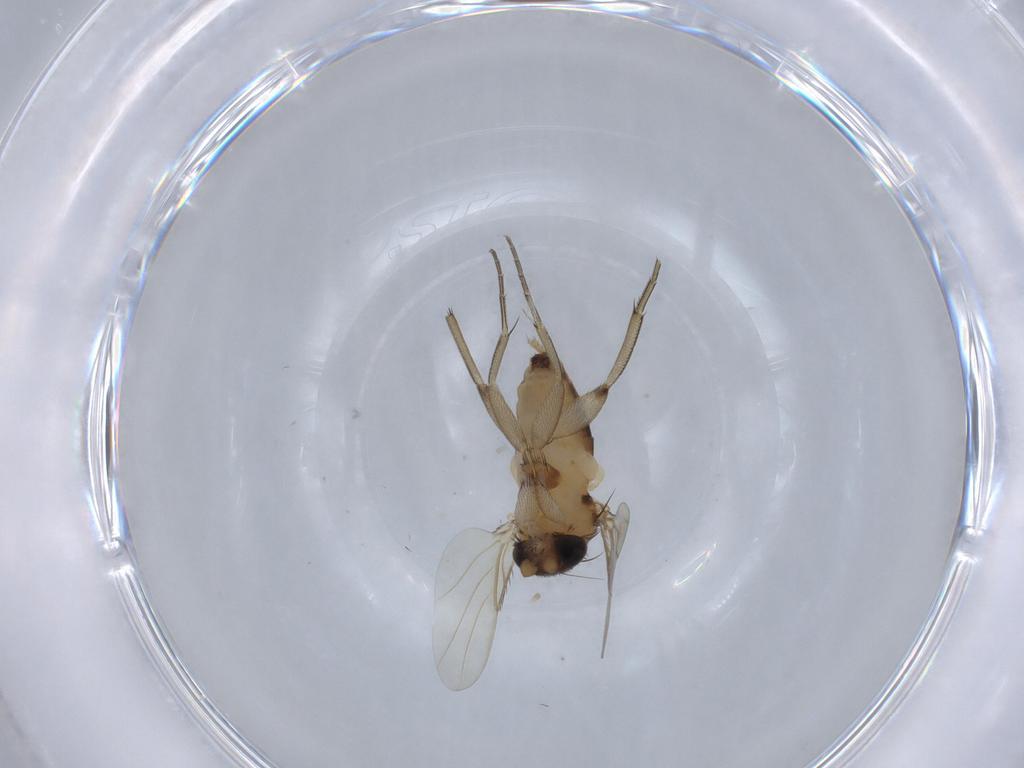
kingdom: Animalia
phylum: Arthropoda
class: Insecta
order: Diptera
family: Phoridae
